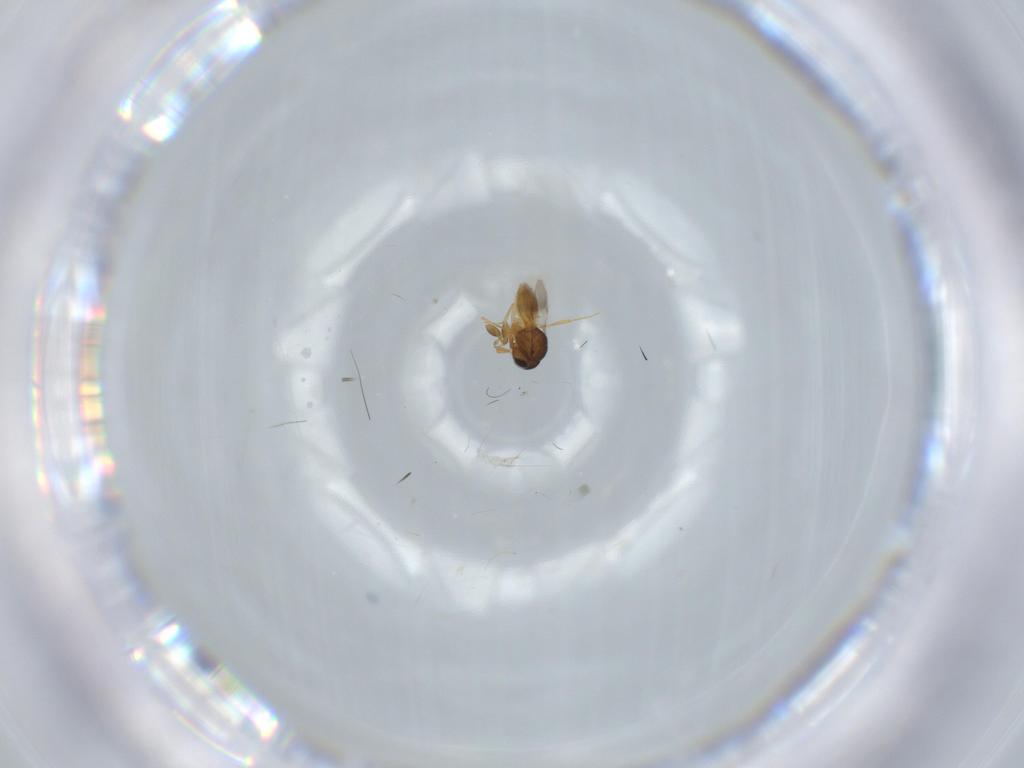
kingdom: Animalia
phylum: Arthropoda
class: Insecta
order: Hymenoptera
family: Scelionidae
